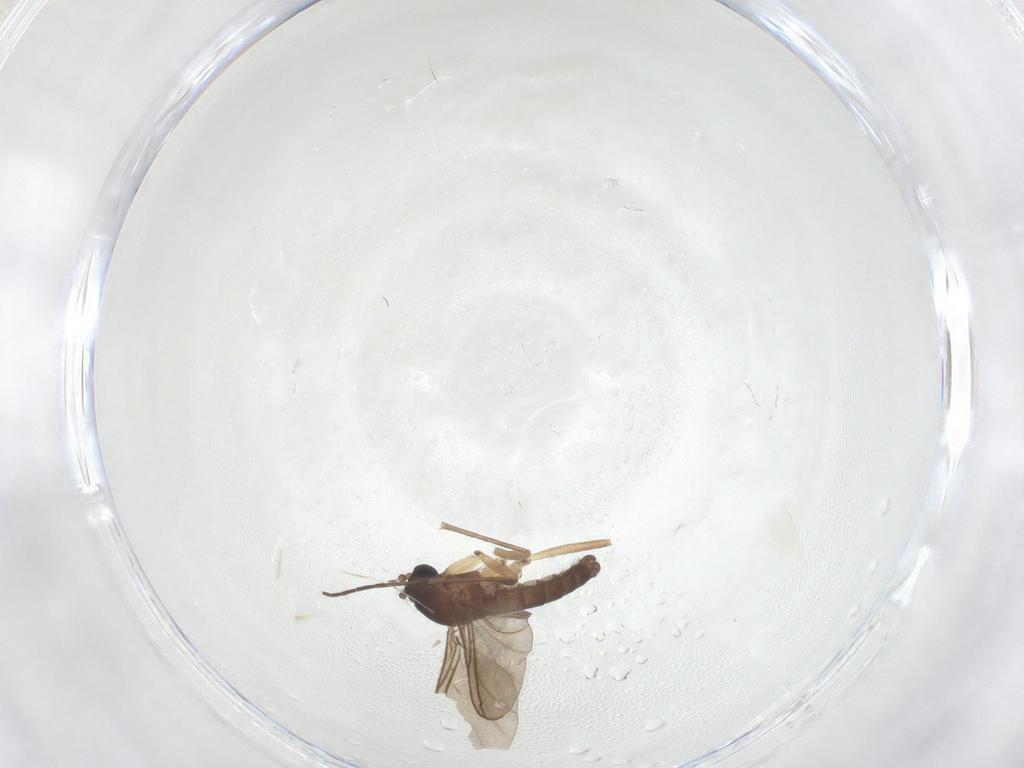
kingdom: Animalia
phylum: Arthropoda
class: Insecta
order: Diptera
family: Sciaridae
